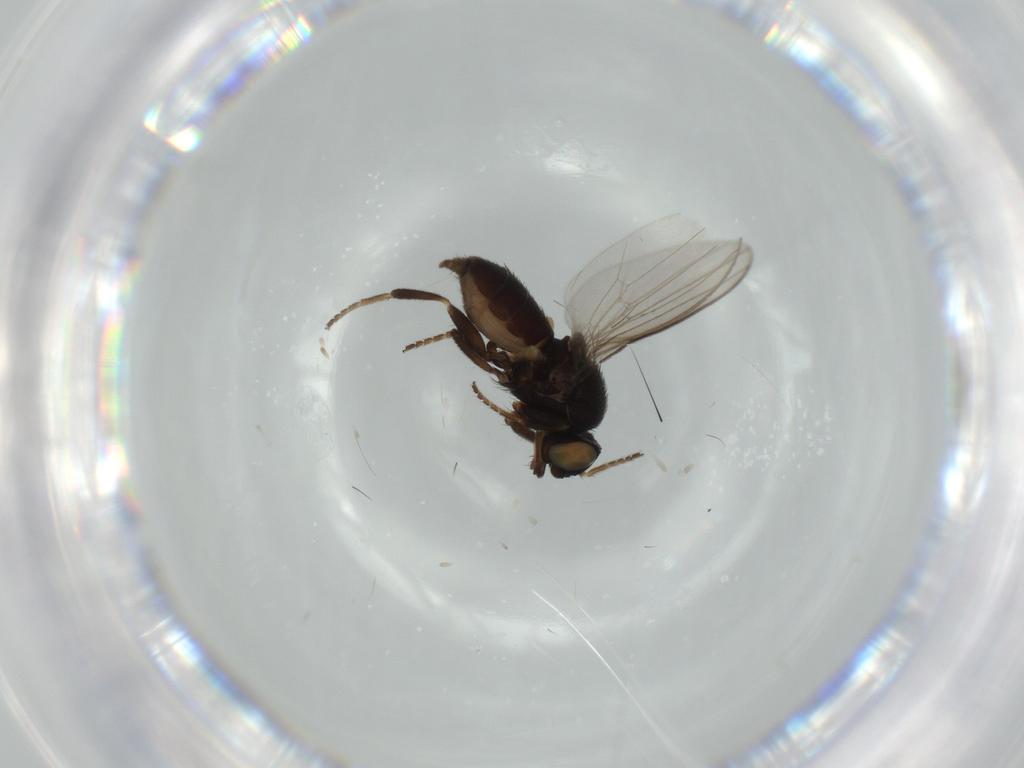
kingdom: Animalia
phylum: Arthropoda
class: Insecta
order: Diptera
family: Milichiidae
